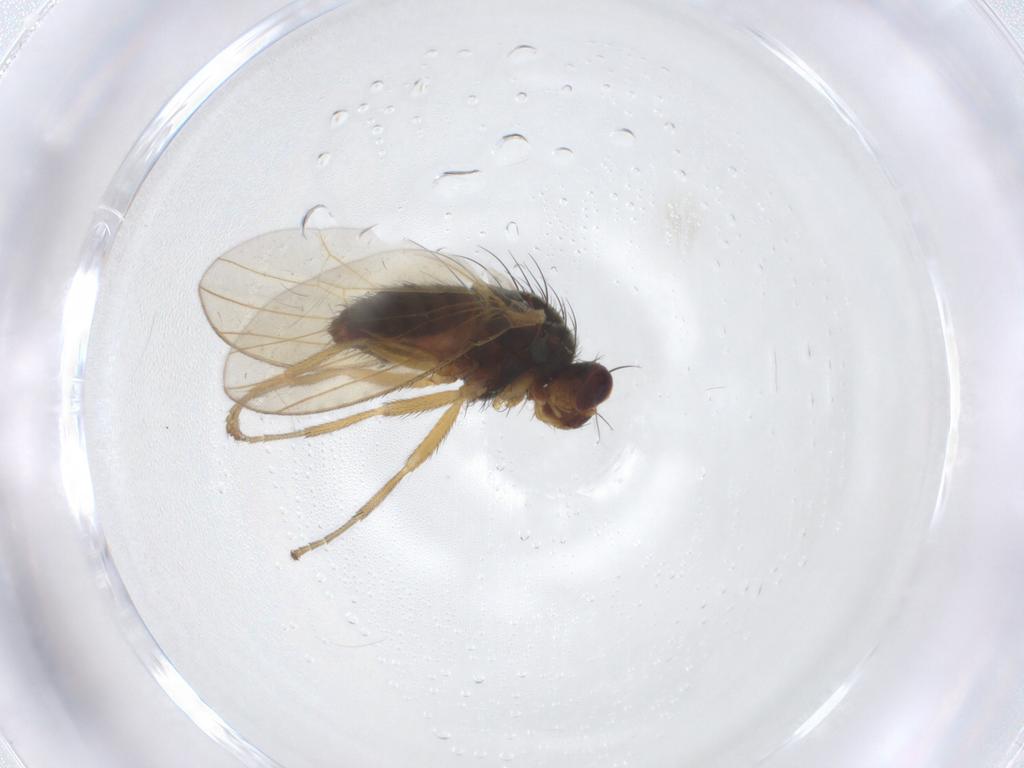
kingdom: Animalia
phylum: Arthropoda
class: Insecta
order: Diptera
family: Heleomyzidae
